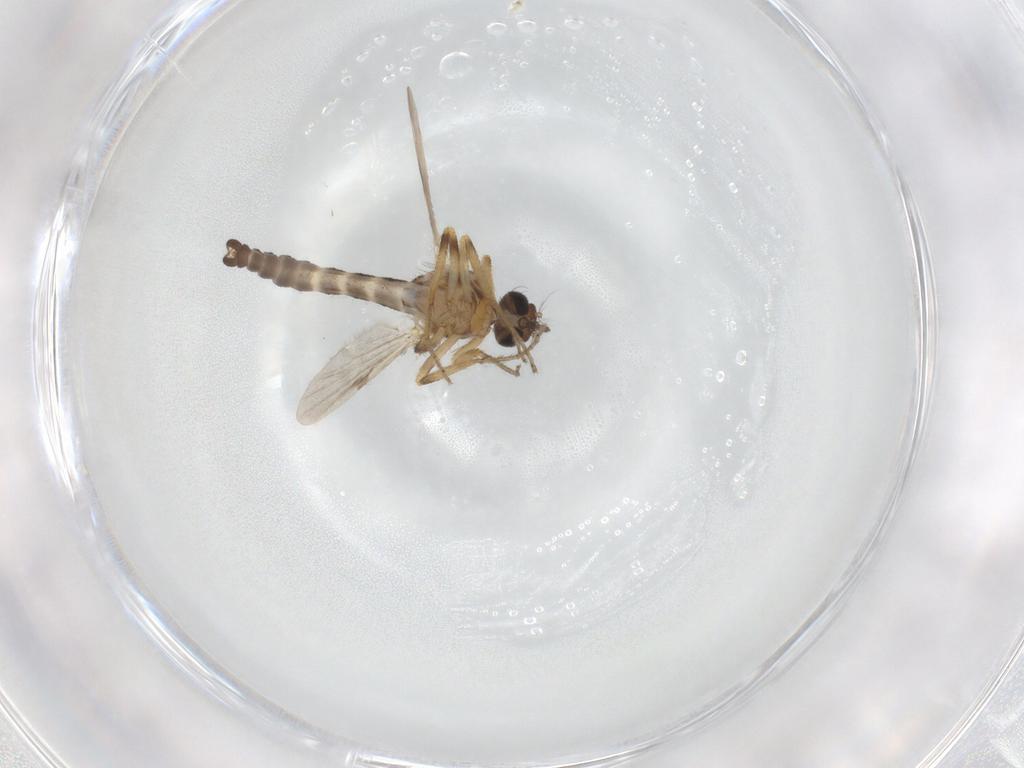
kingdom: Animalia
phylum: Arthropoda
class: Insecta
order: Diptera
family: Ceratopogonidae
